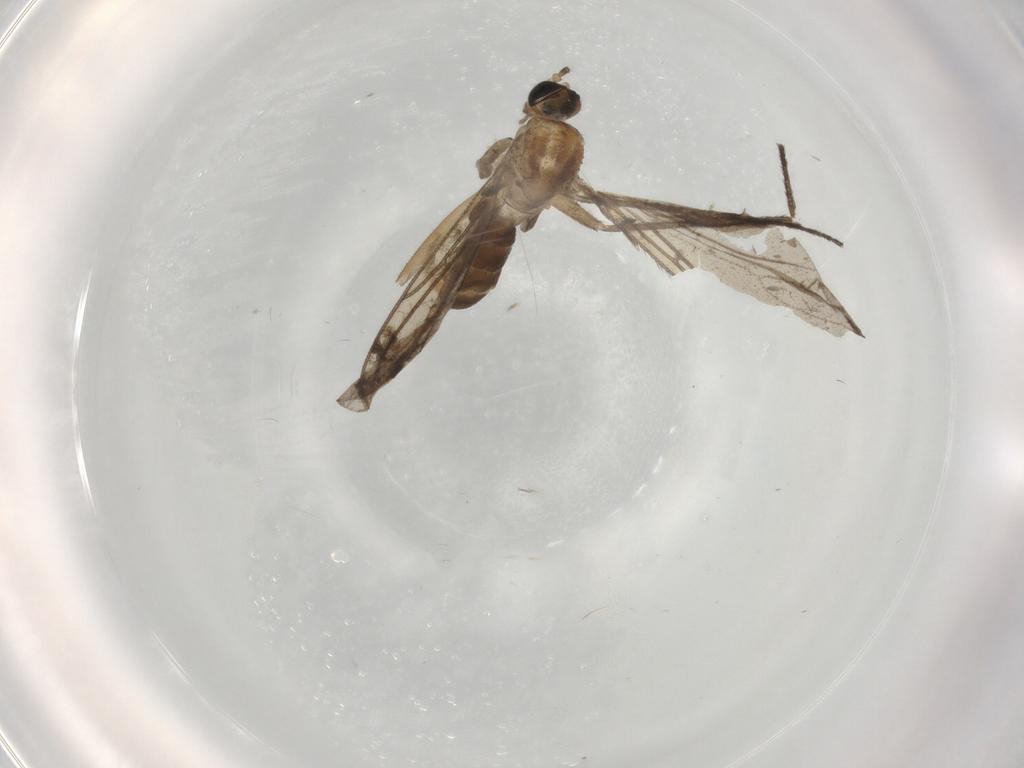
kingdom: Animalia
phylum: Arthropoda
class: Insecta
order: Diptera
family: Sciaridae
